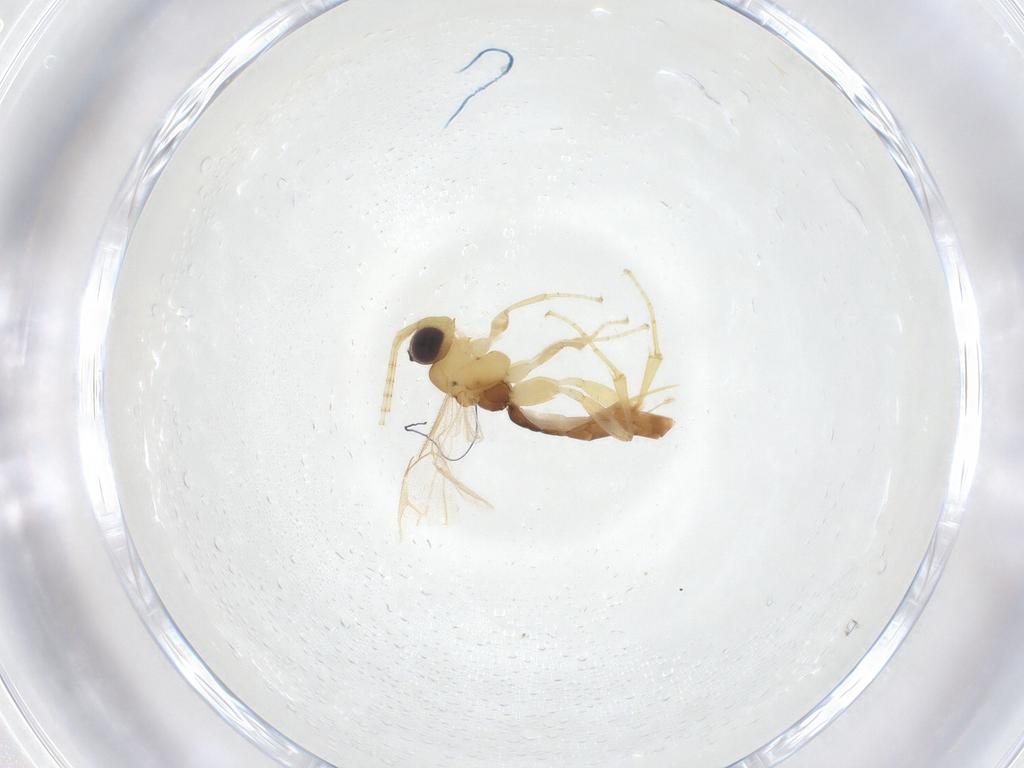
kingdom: Animalia
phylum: Arthropoda
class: Insecta
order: Hymenoptera
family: Ichneumonidae
